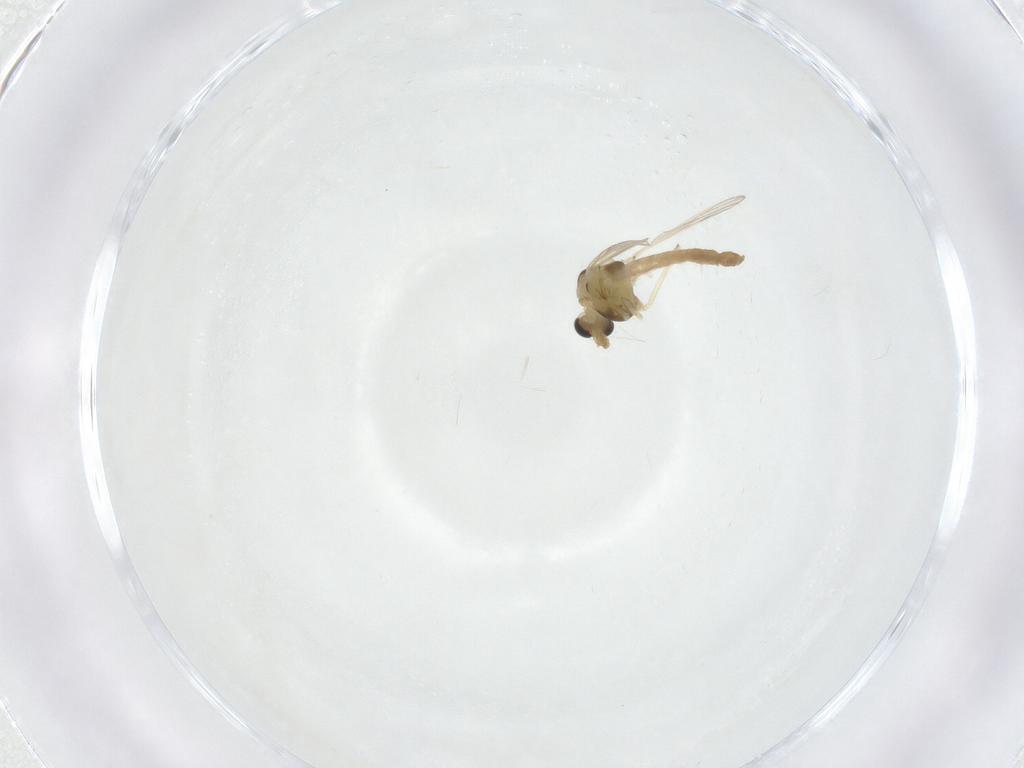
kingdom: Animalia
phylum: Arthropoda
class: Insecta
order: Diptera
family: Chironomidae
